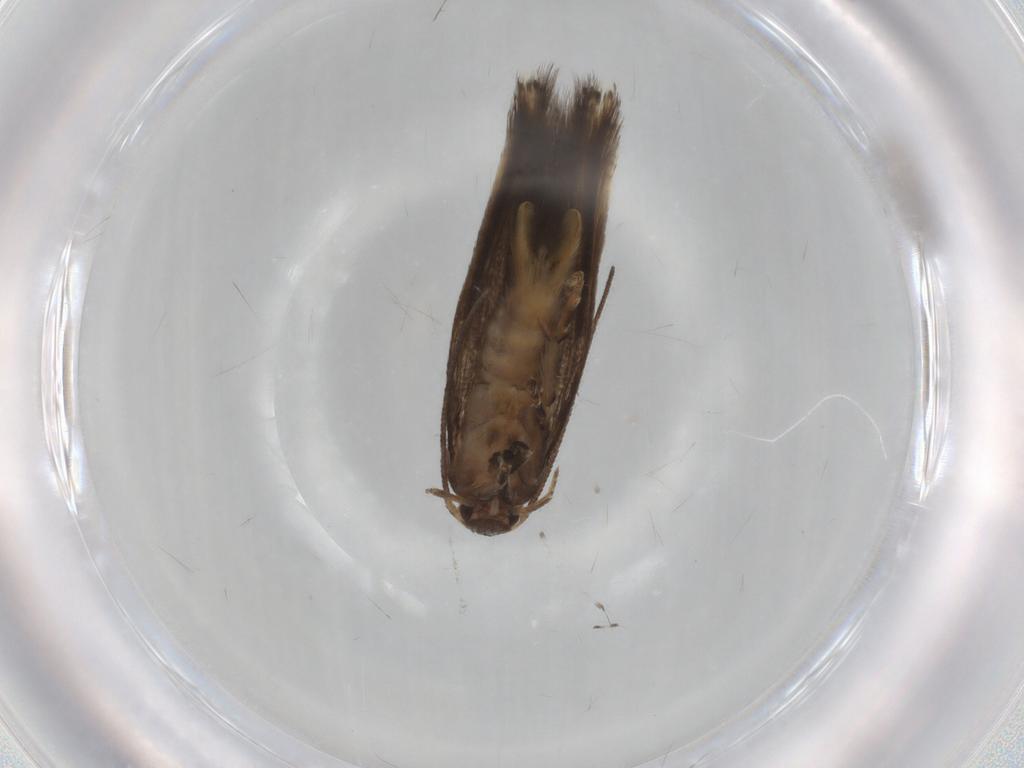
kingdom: Animalia
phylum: Arthropoda
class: Insecta
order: Lepidoptera
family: Elachistidae
